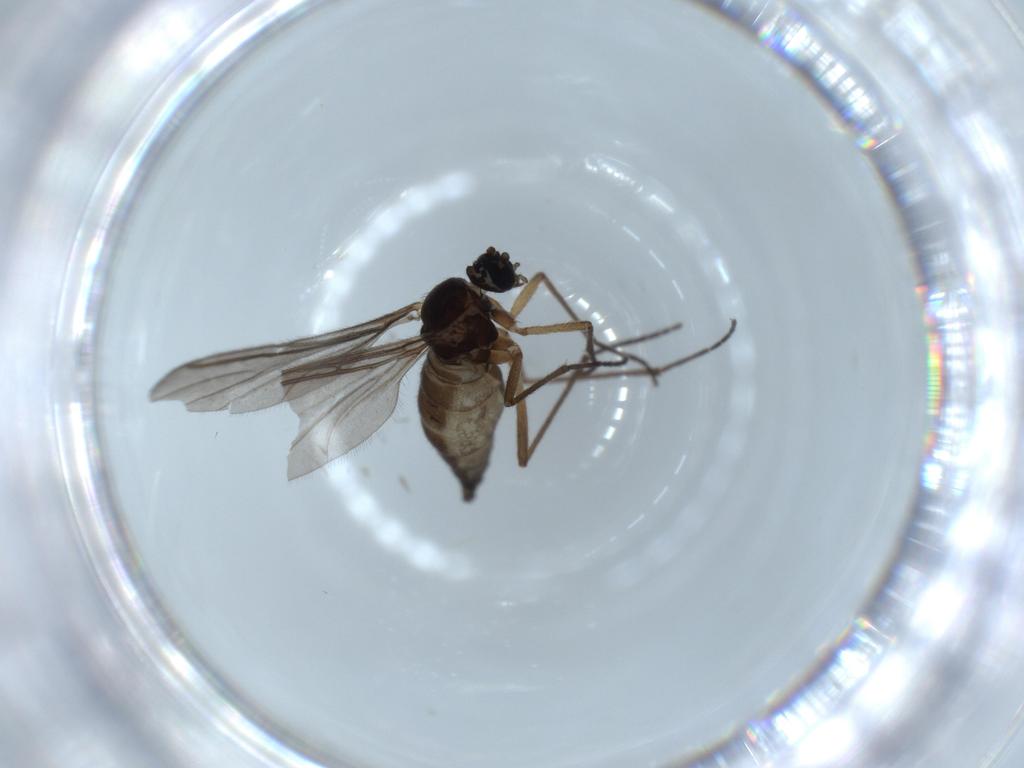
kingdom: Animalia
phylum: Arthropoda
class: Insecta
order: Diptera
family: Sciaridae
